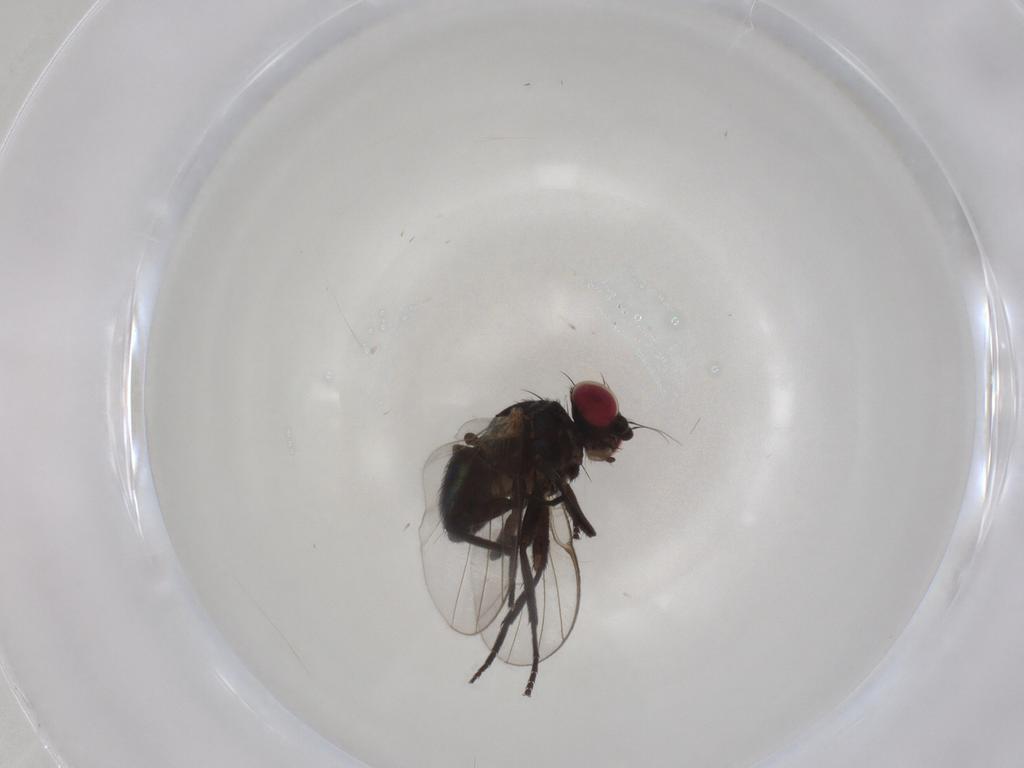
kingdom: Animalia
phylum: Arthropoda
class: Insecta
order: Diptera
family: Agromyzidae
